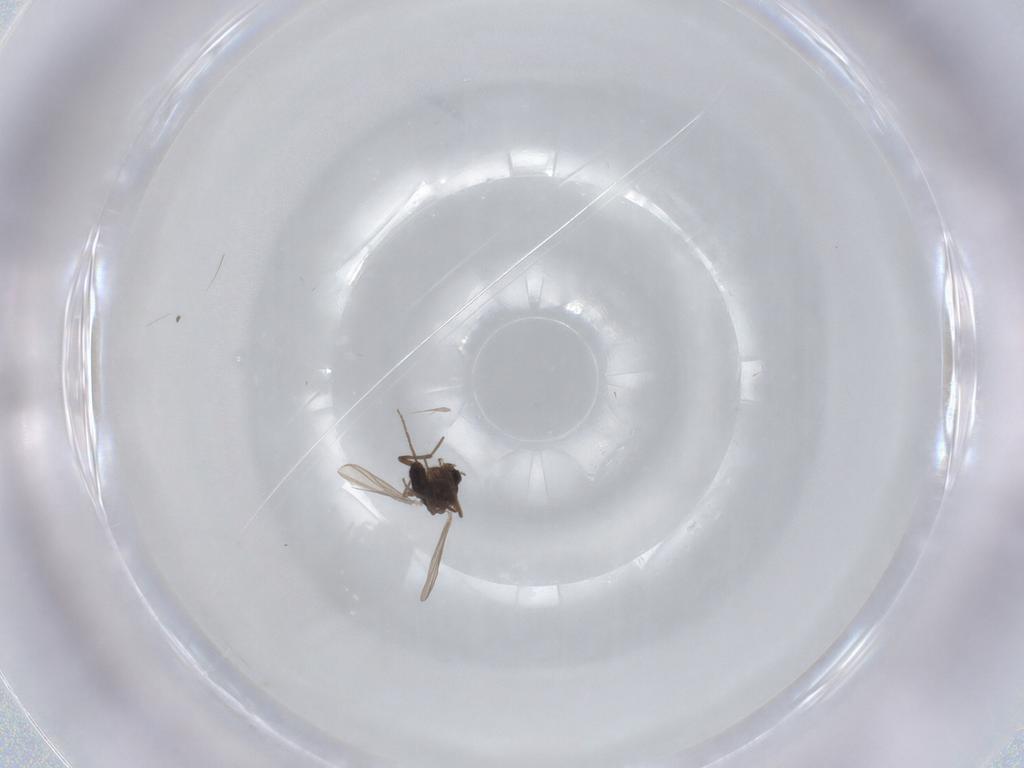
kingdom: Animalia
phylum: Arthropoda
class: Insecta
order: Diptera
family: Chironomidae
